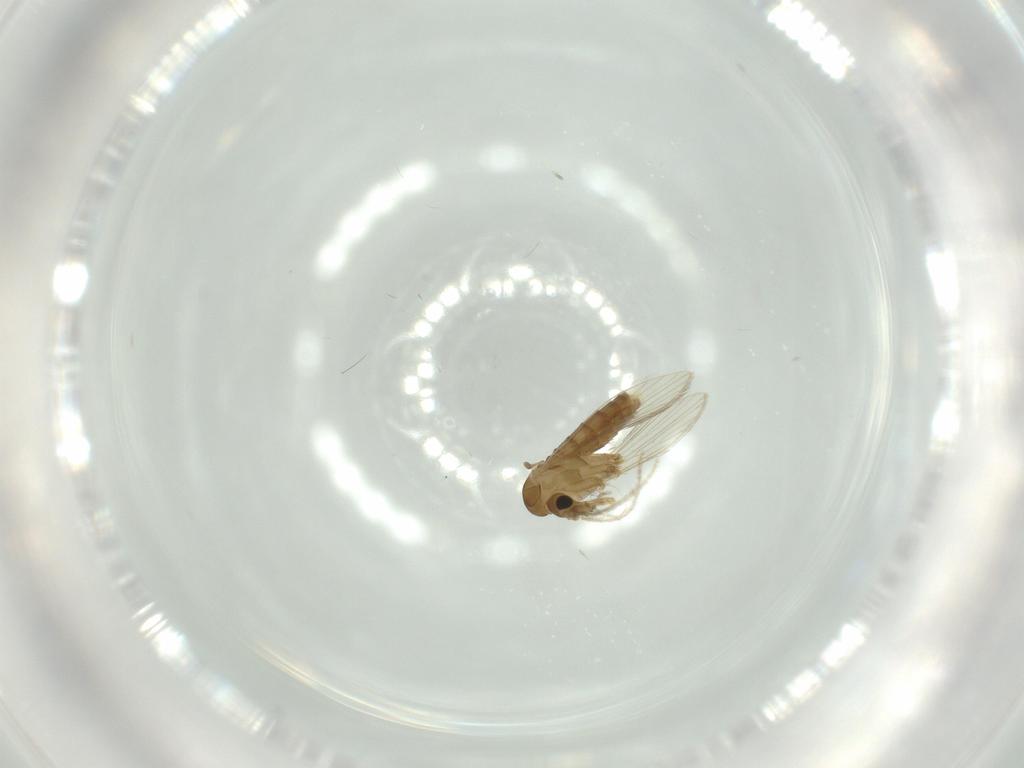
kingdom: Animalia
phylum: Arthropoda
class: Insecta
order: Diptera
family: Psychodidae
